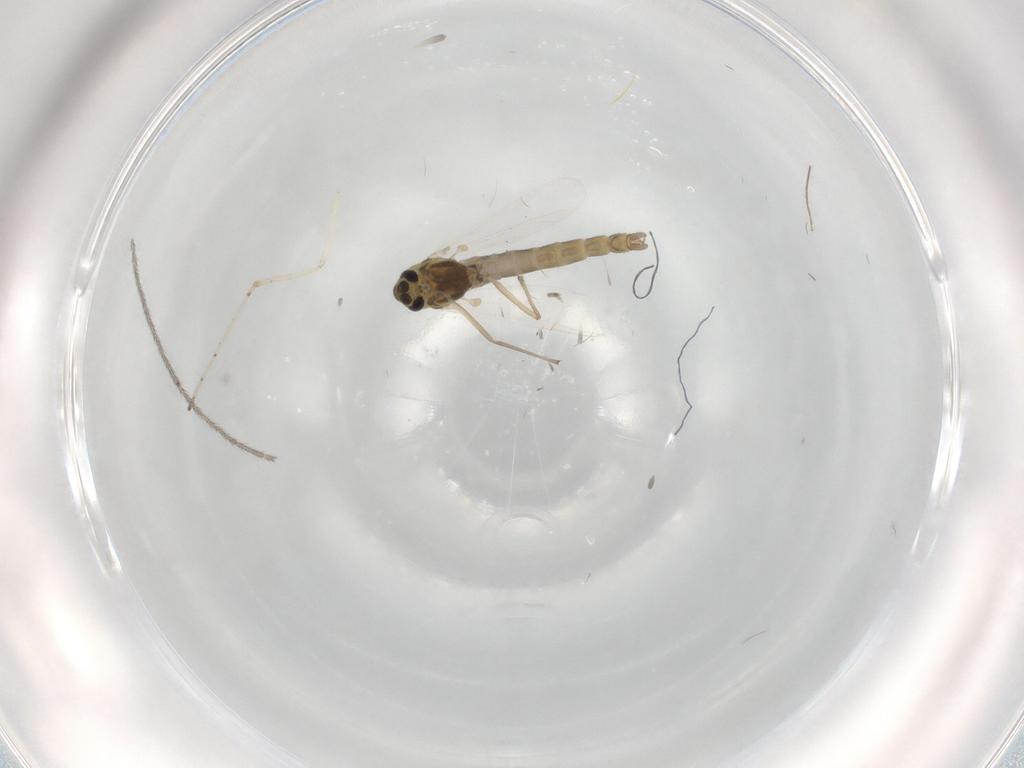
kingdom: Animalia
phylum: Arthropoda
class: Insecta
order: Diptera
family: Chironomidae
